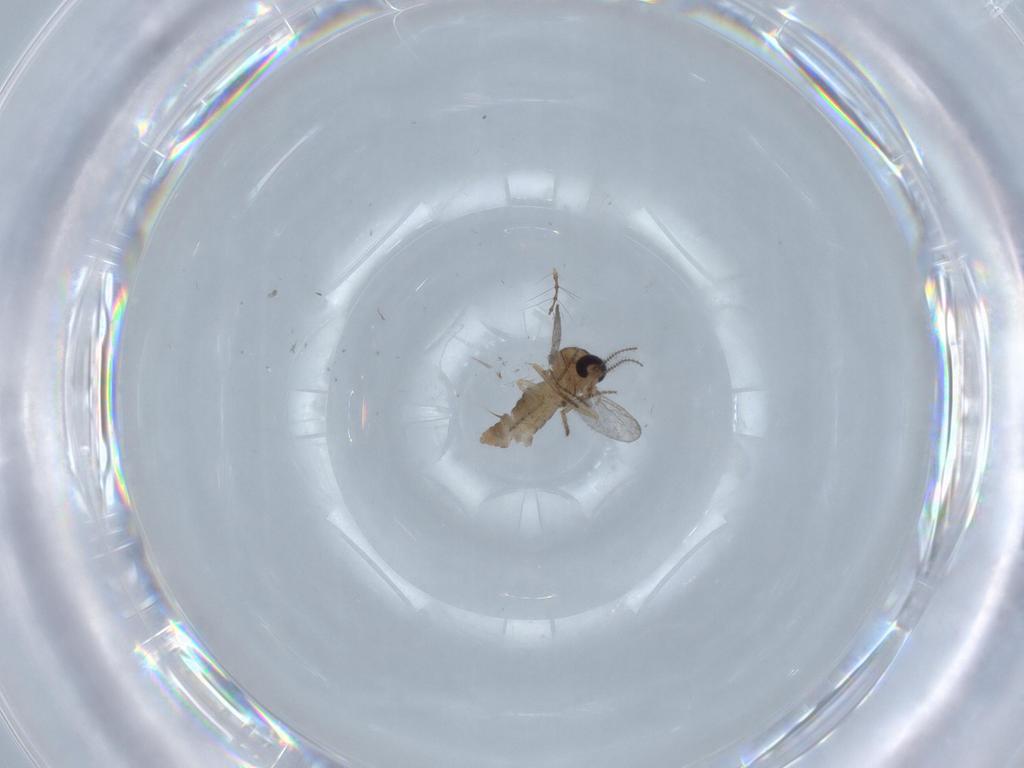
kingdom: Animalia
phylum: Arthropoda
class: Insecta
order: Diptera
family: Ceratopogonidae
